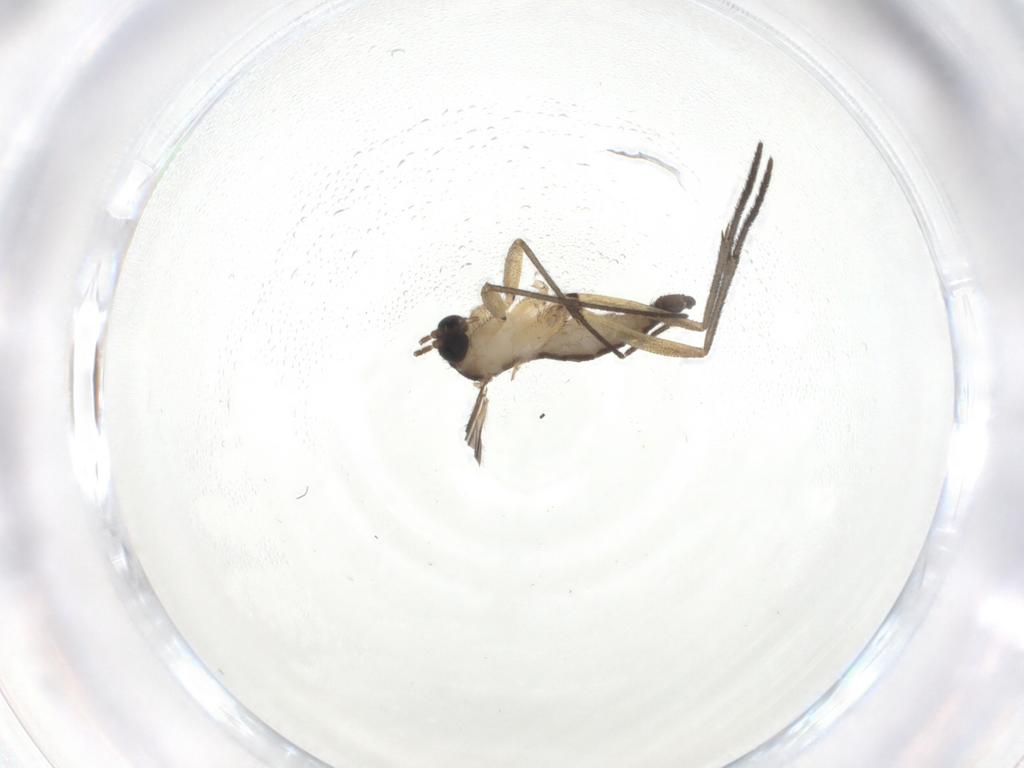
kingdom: Animalia
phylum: Arthropoda
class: Insecta
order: Diptera
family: Sciaridae
